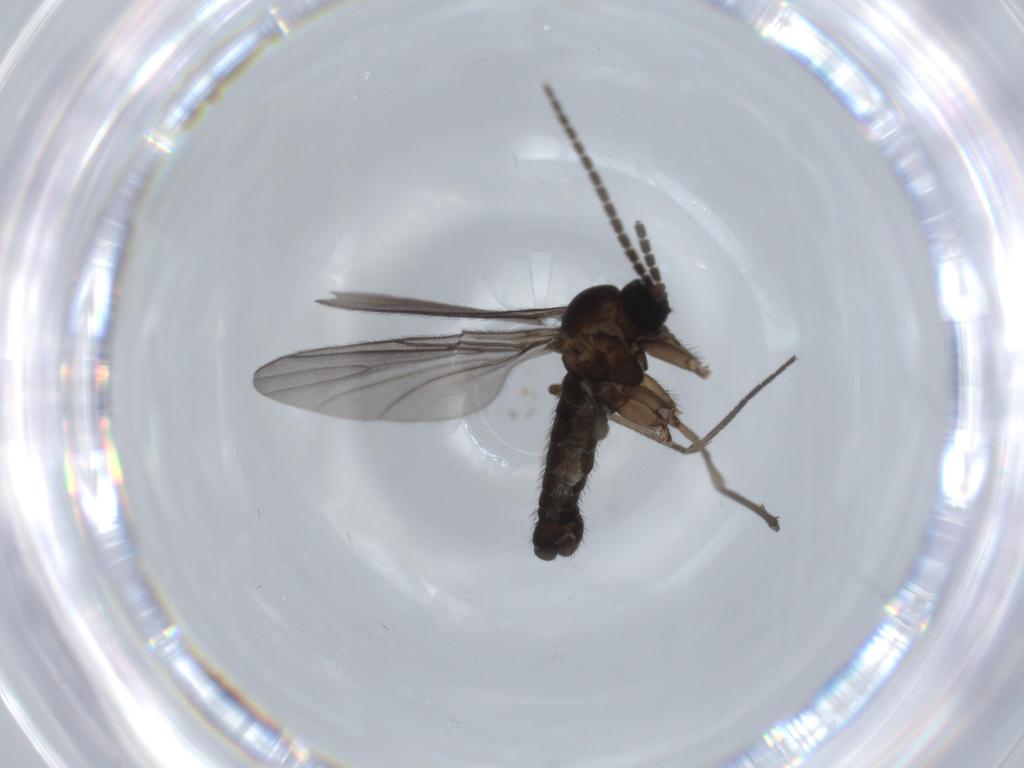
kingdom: Animalia
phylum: Arthropoda
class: Insecta
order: Diptera
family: Sciaridae
